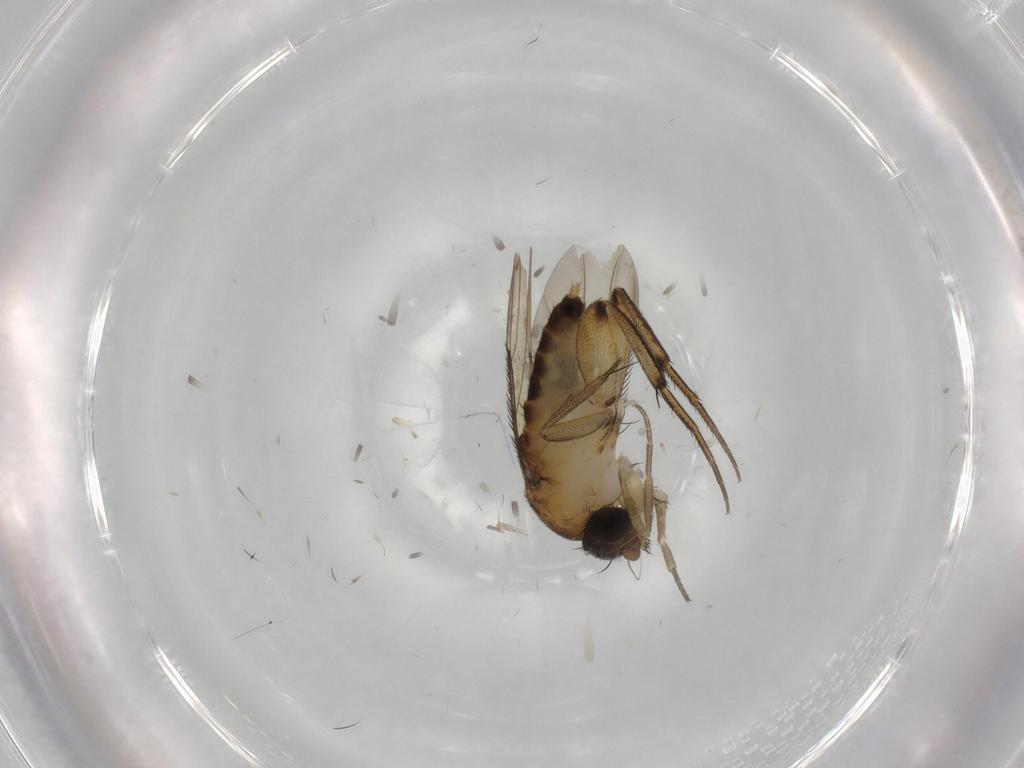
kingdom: Animalia
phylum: Arthropoda
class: Insecta
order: Diptera
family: Phoridae
